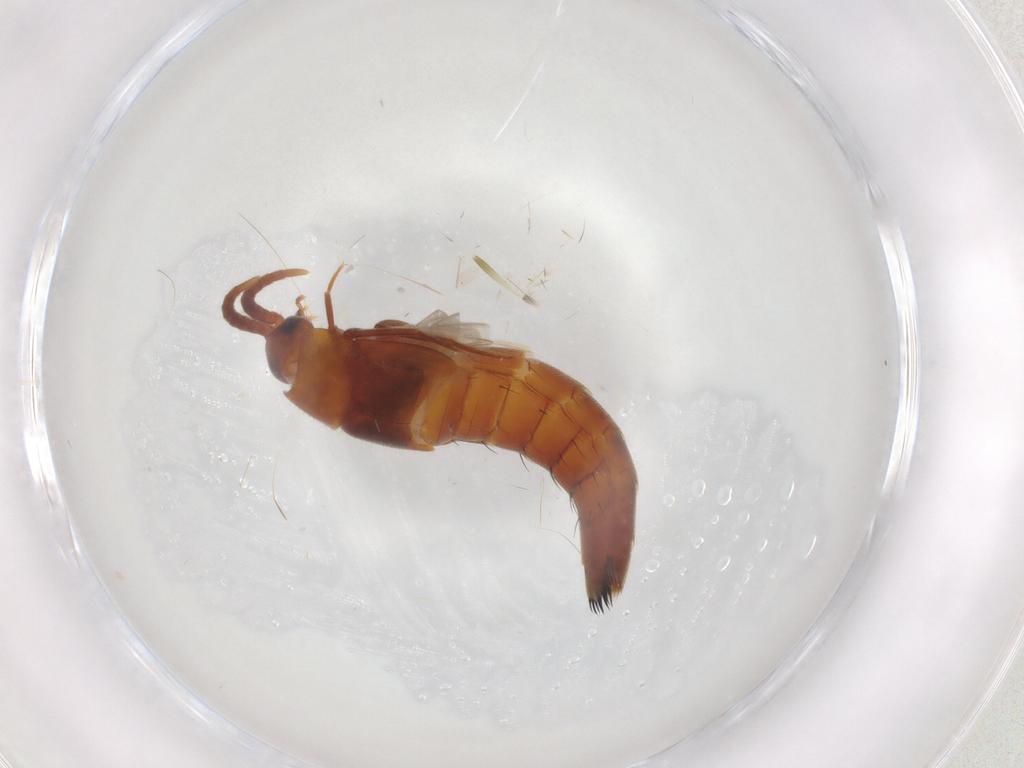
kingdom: Animalia
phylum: Arthropoda
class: Insecta
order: Coleoptera
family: Staphylinidae
